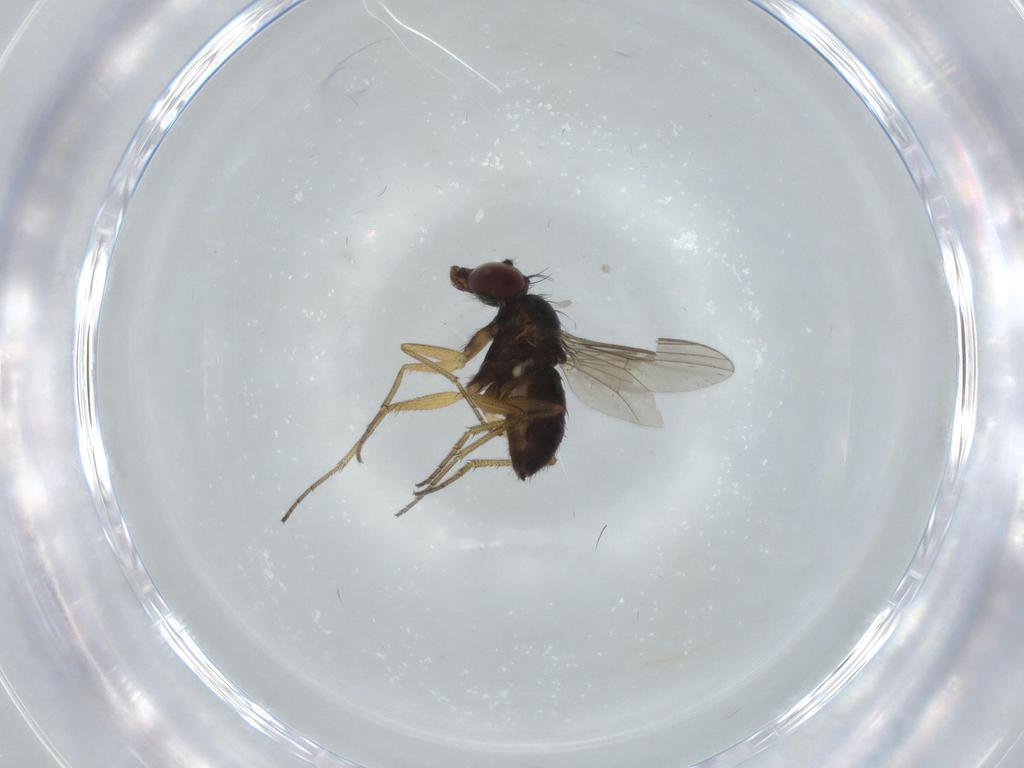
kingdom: Animalia
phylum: Arthropoda
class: Insecta
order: Diptera
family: Dolichopodidae
